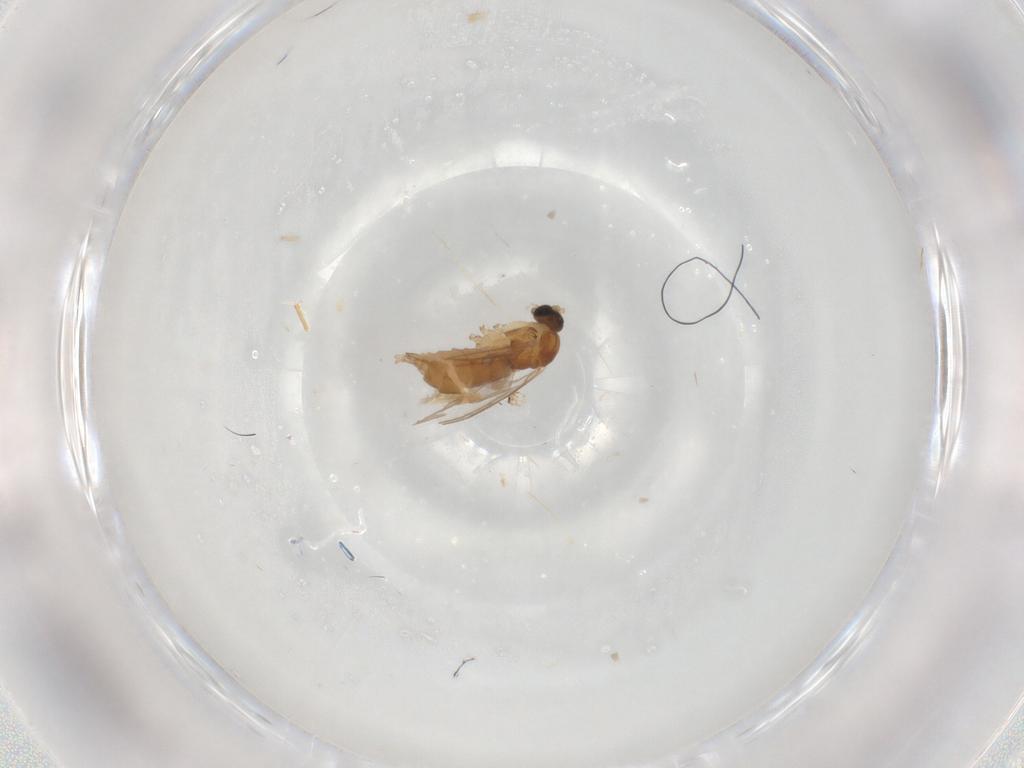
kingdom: Animalia
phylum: Arthropoda
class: Insecta
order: Diptera
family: Sciaridae
